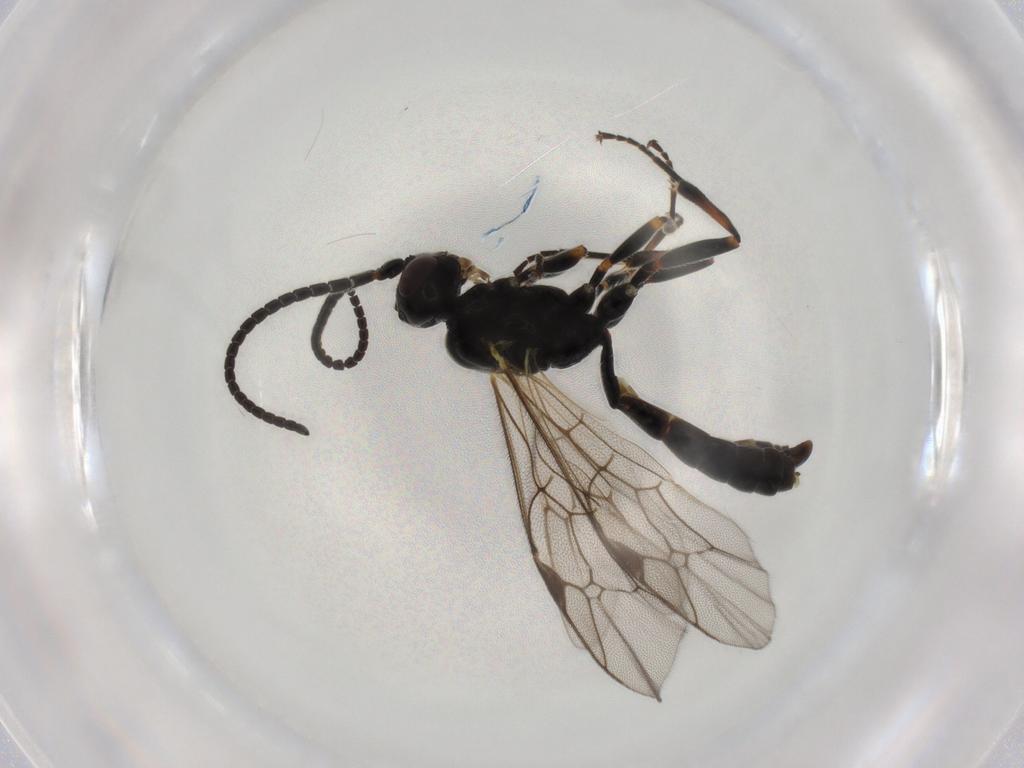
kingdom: Animalia
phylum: Arthropoda
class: Insecta
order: Hymenoptera
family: Ichneumonidae
